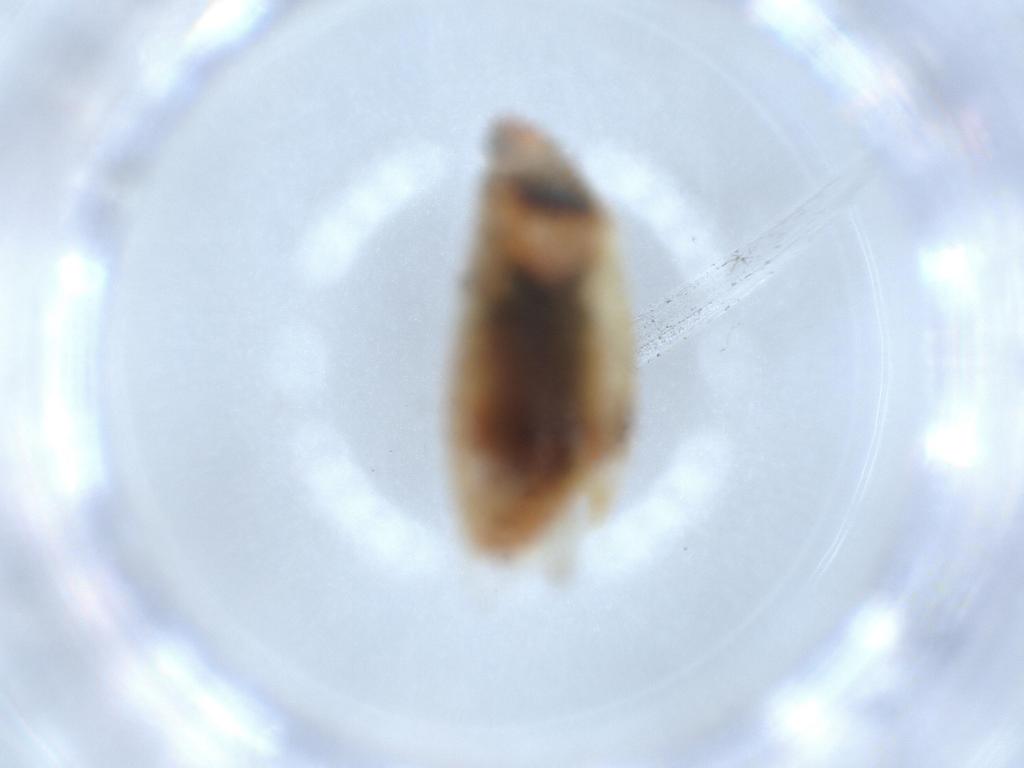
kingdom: Animalia
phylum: Arthropoda
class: Insecta
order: Hemiptera
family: Aphididae
